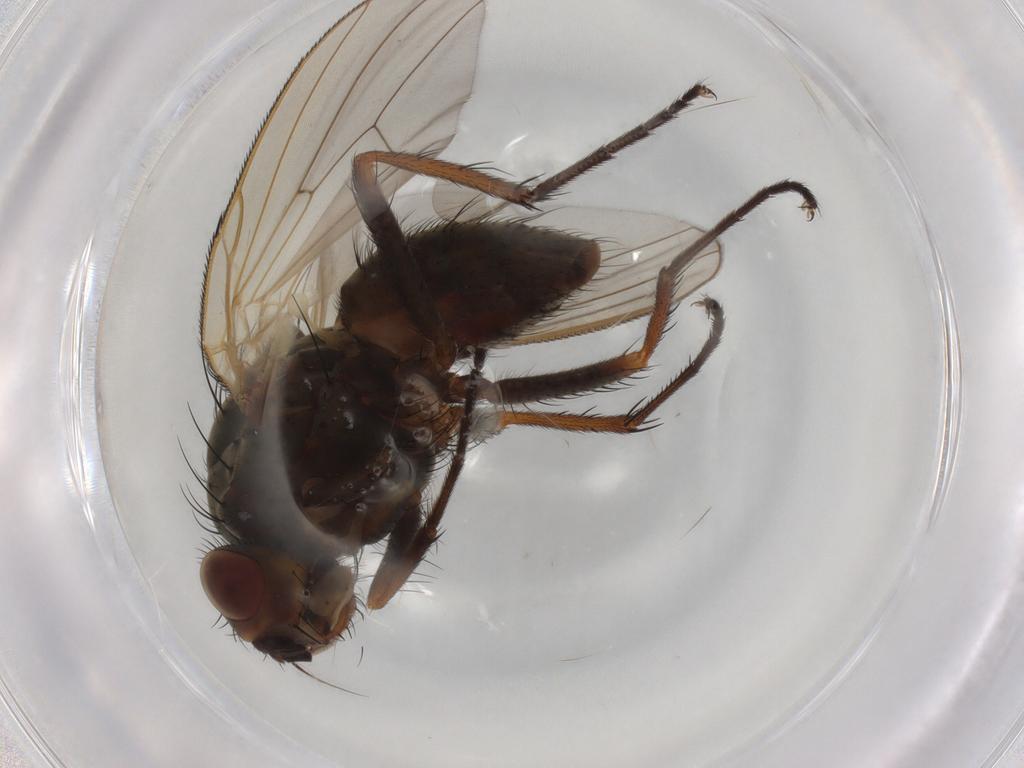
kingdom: Animalia
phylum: Arthropoda
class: Insecta
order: Diptera
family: Anthomyiidae
